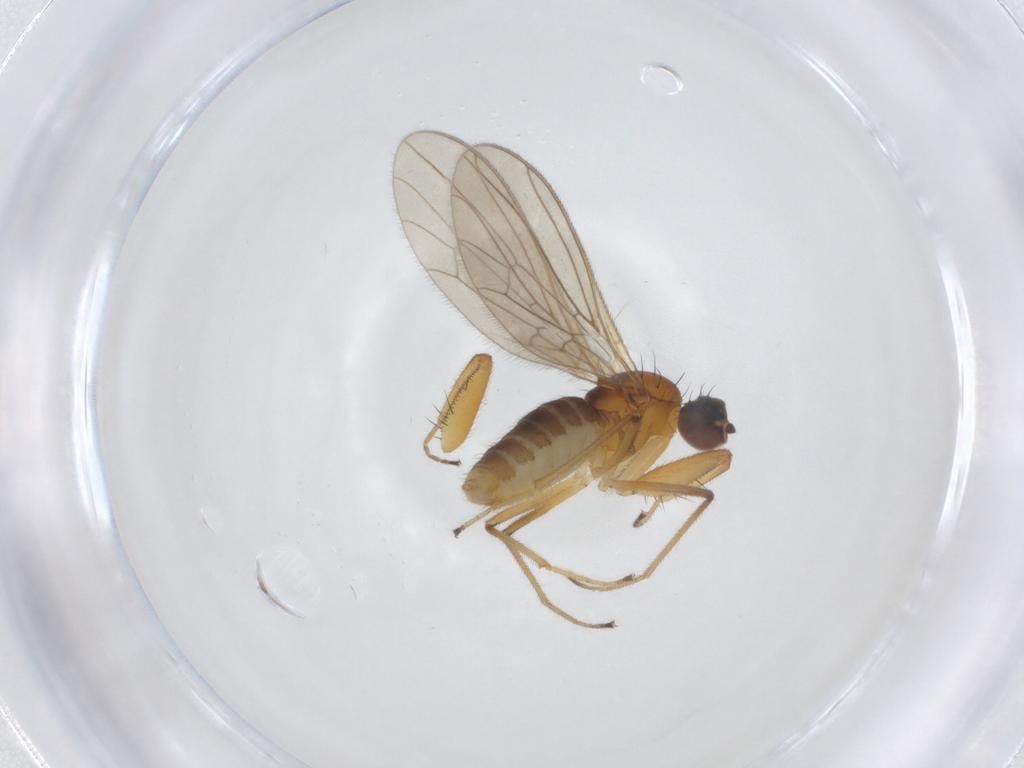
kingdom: Animalia
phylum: Arthropoda
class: Insecta
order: Diptera
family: Empididae
